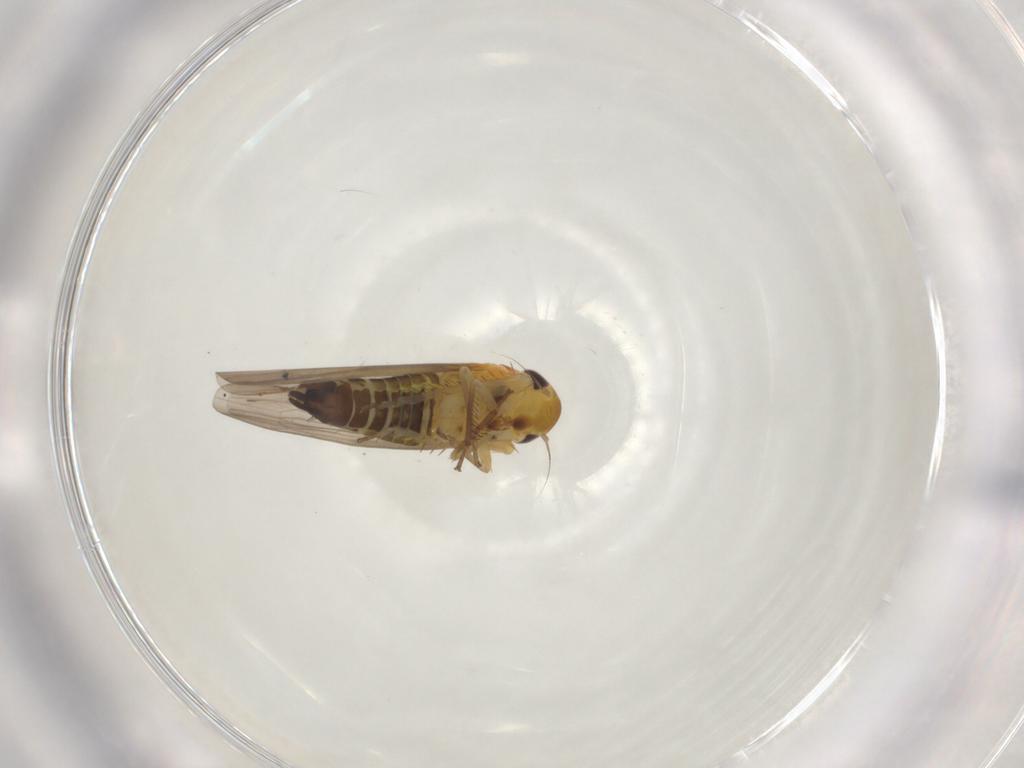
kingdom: Animalia
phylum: Arthropoda
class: Insecta
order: Hemiptera
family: Cicadellidae
